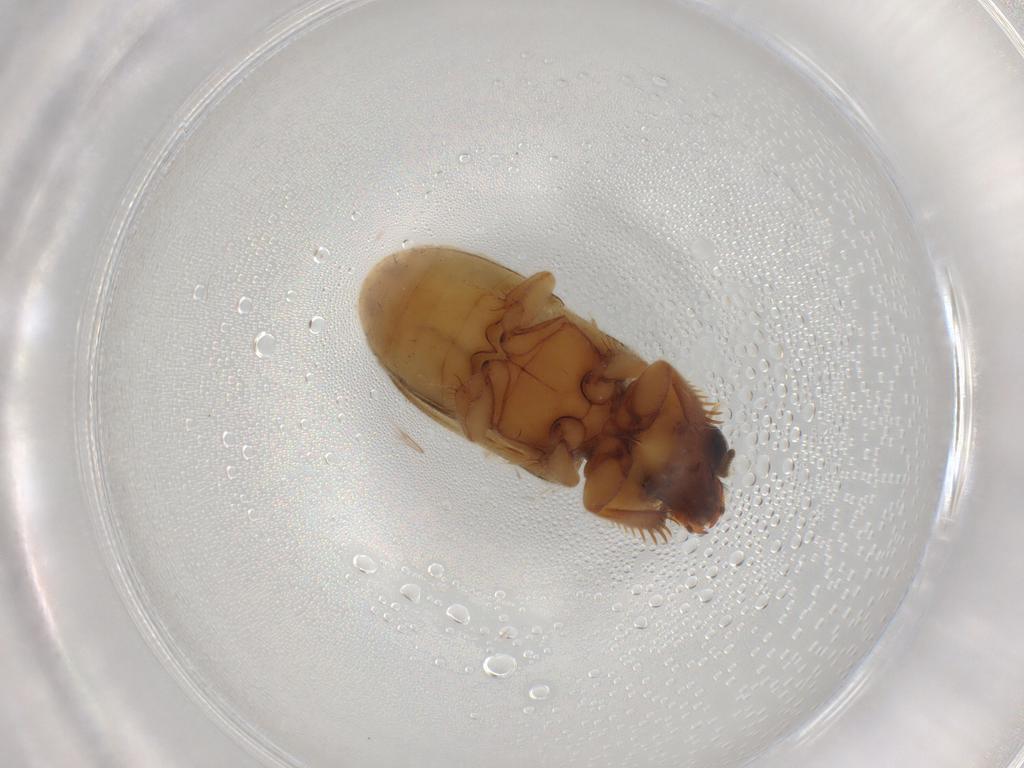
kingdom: Animalia
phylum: Arthropoda
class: Insecta
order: Coleoptera
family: Heteroceridae
